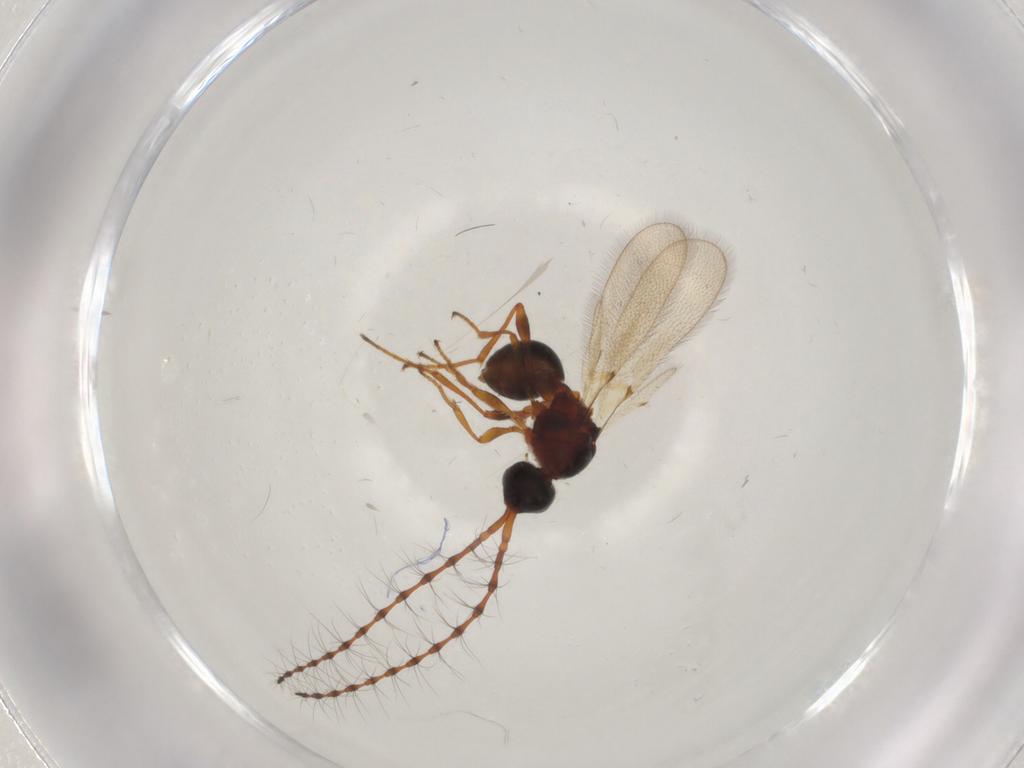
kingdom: Animalia
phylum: Arthropoda
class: Insecta
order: Hymenoptera
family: Diapriidae
